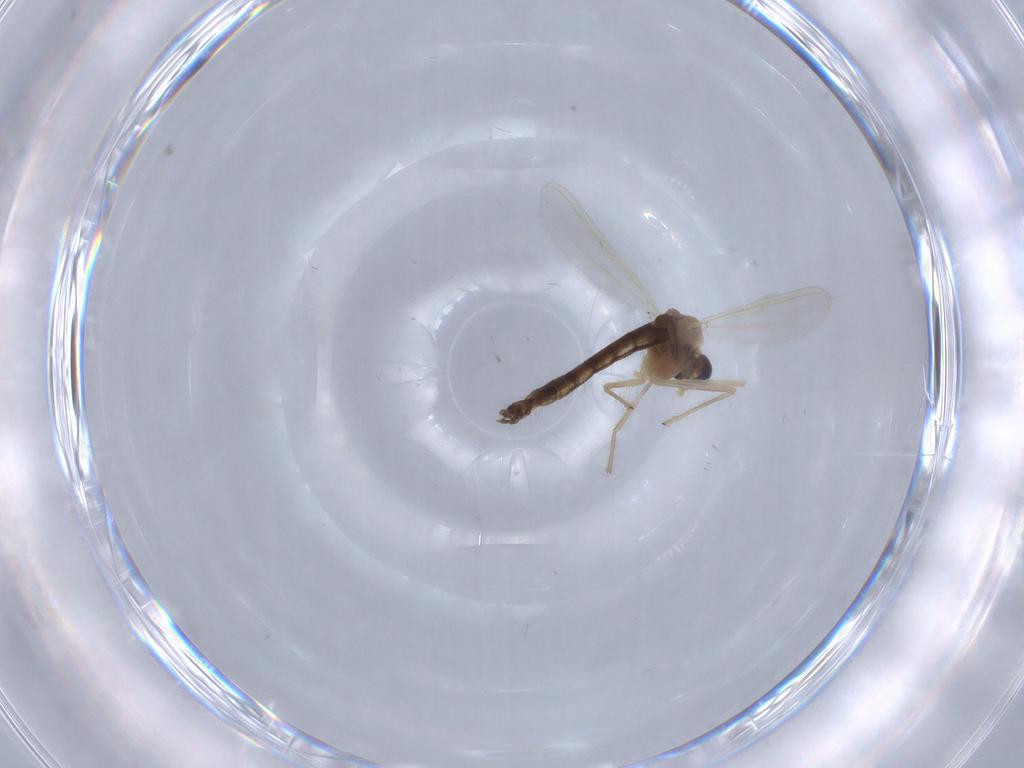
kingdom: Animalia
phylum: Arthropoda
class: Insecta
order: Diptera
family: Chironomidae
